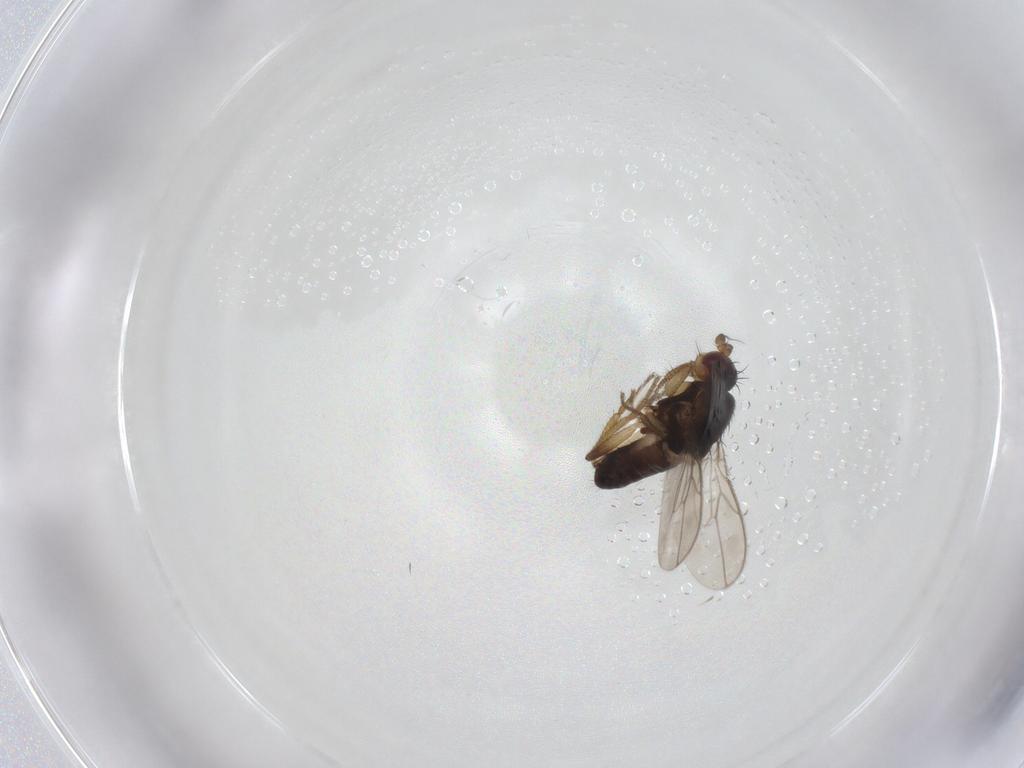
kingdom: Animalia
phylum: Arthropoda
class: Insecta
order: Diptera
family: Sphaeroceridae
